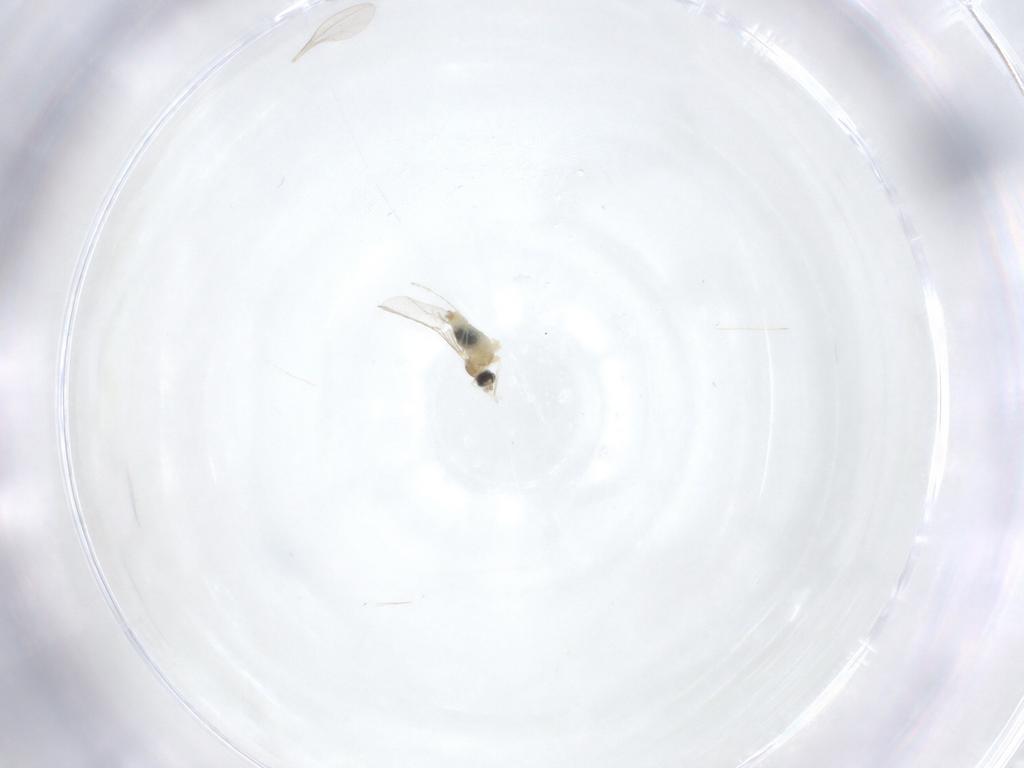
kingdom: Animalia
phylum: Arthropoda
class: Insecta
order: Diptera
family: Cecidomyiidae
